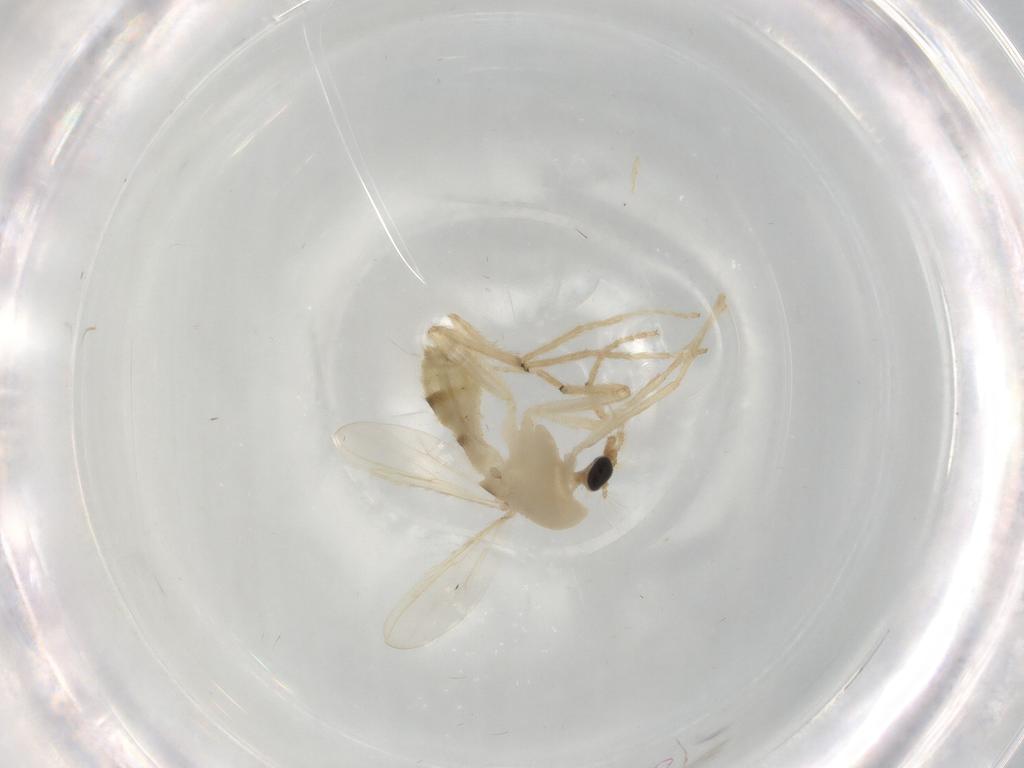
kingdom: Animalia
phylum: Arthropoda
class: Insecta
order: Diptera
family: Chironomidae
